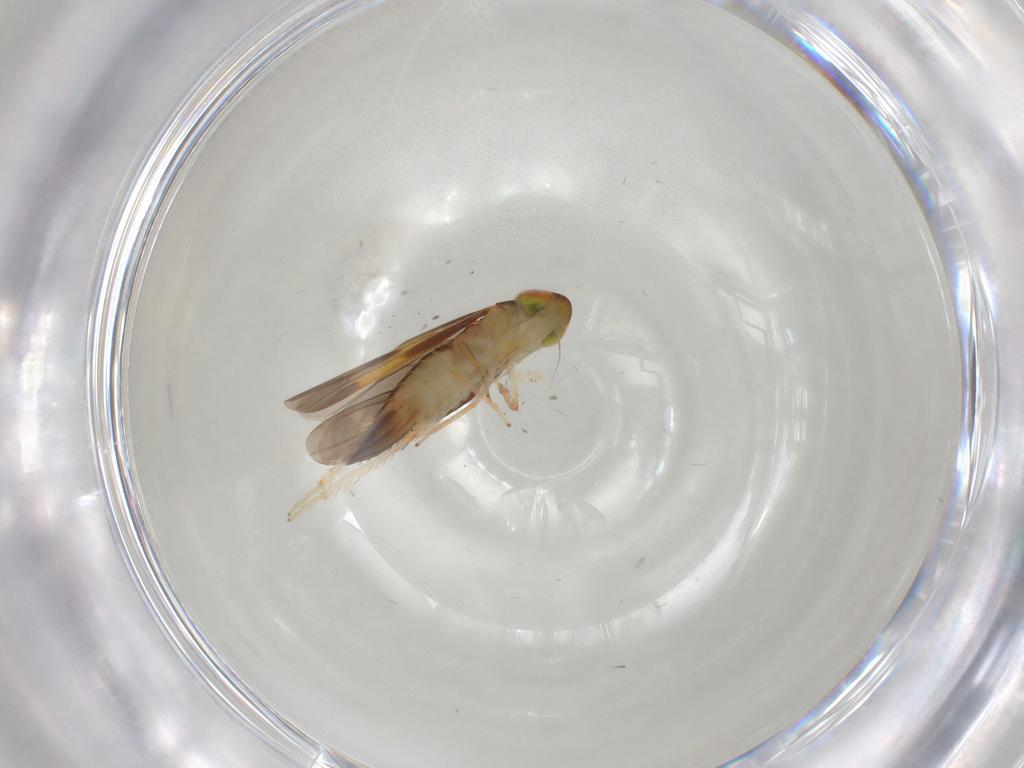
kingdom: Animalia
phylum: Arthropoda
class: Insecta
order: Hemiptera
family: Cicadellidae
